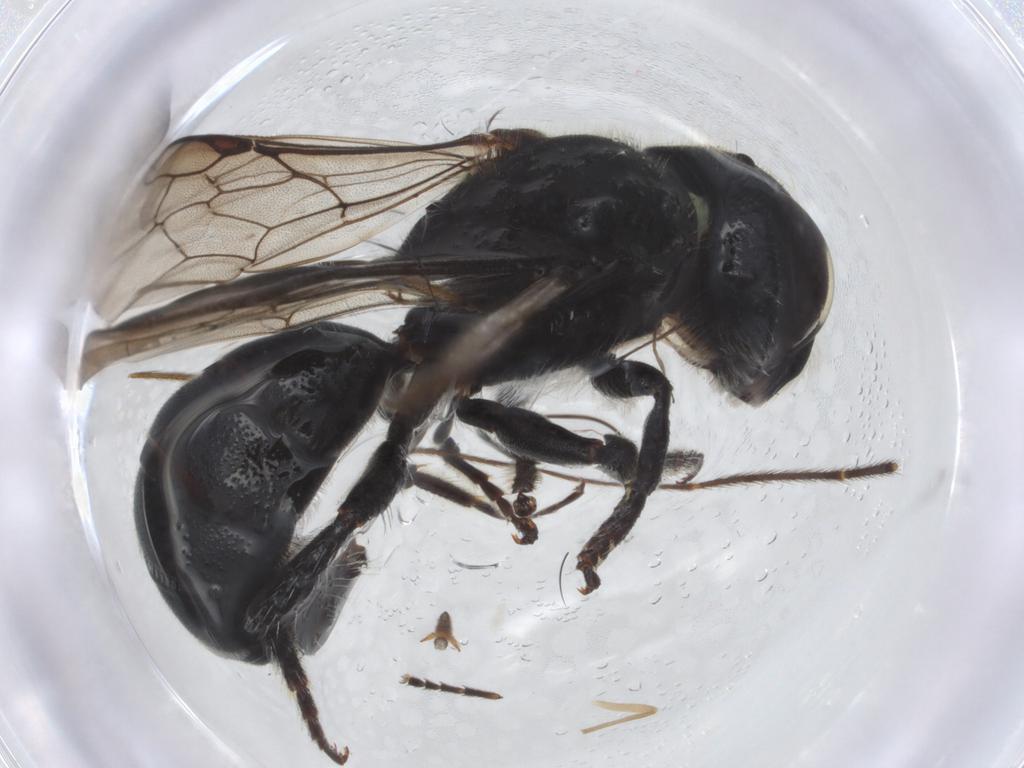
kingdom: Animalia
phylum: Arthropoda
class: Insecta
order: Hymenoptera
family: Megachilidae
